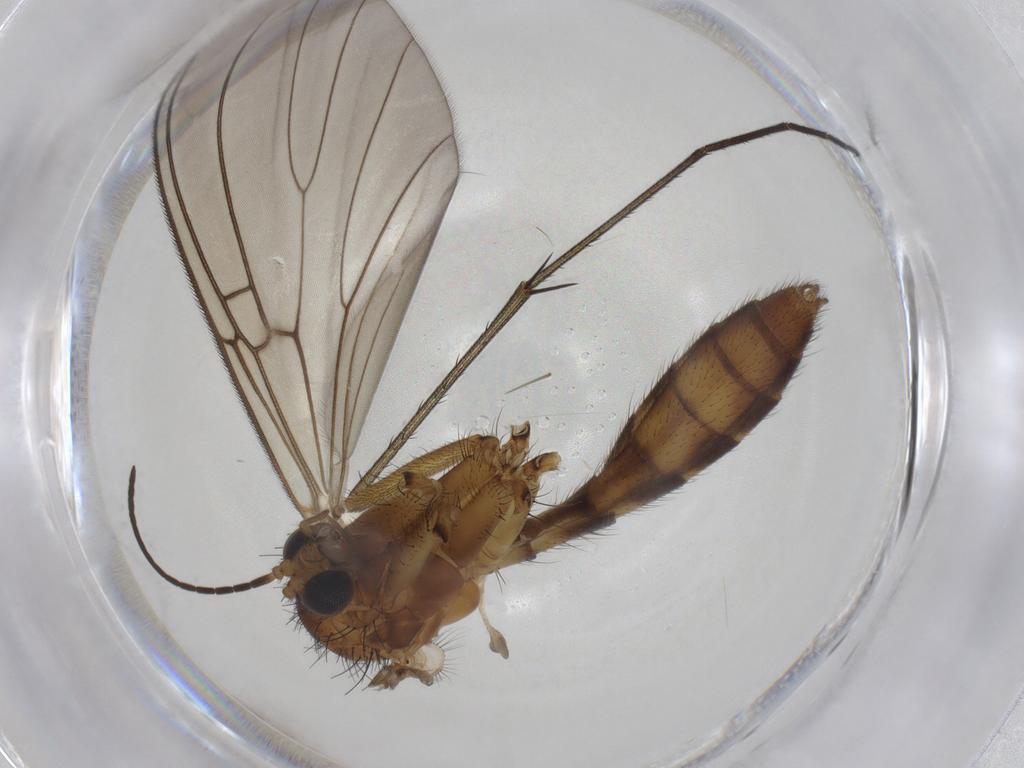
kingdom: Animalia
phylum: Arthropoda
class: Insecta
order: Diptera
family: Mycetophilidae
